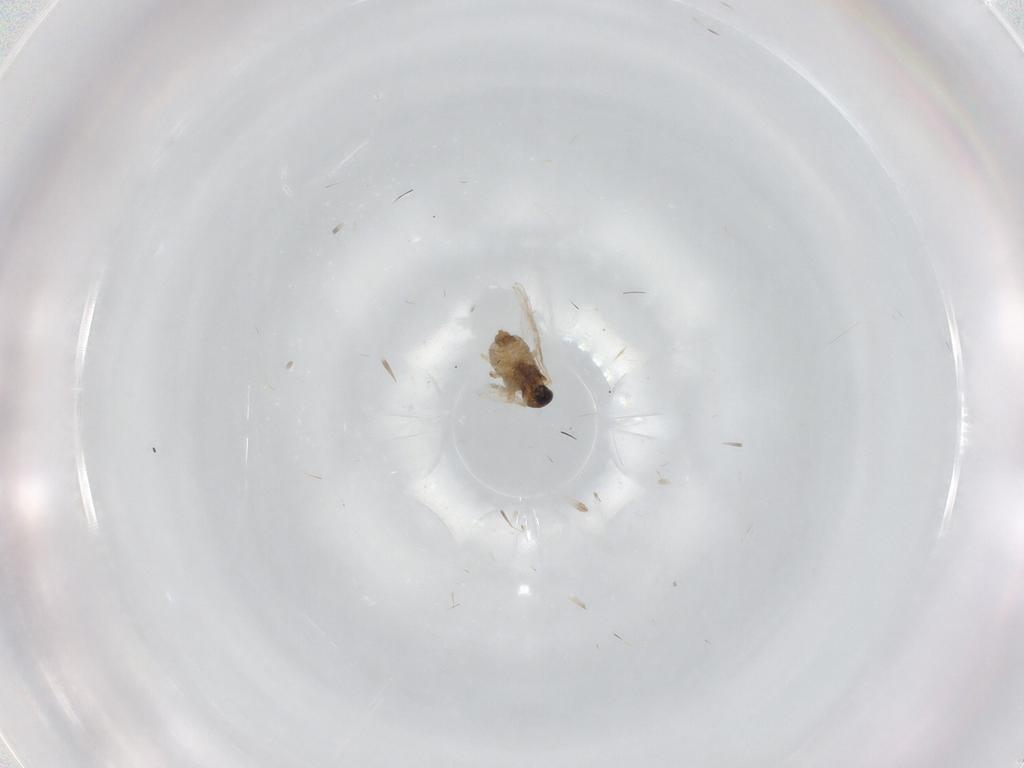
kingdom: Animalia
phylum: Arthropoda
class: Insecta
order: Diptera
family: Cecidomyiidae
